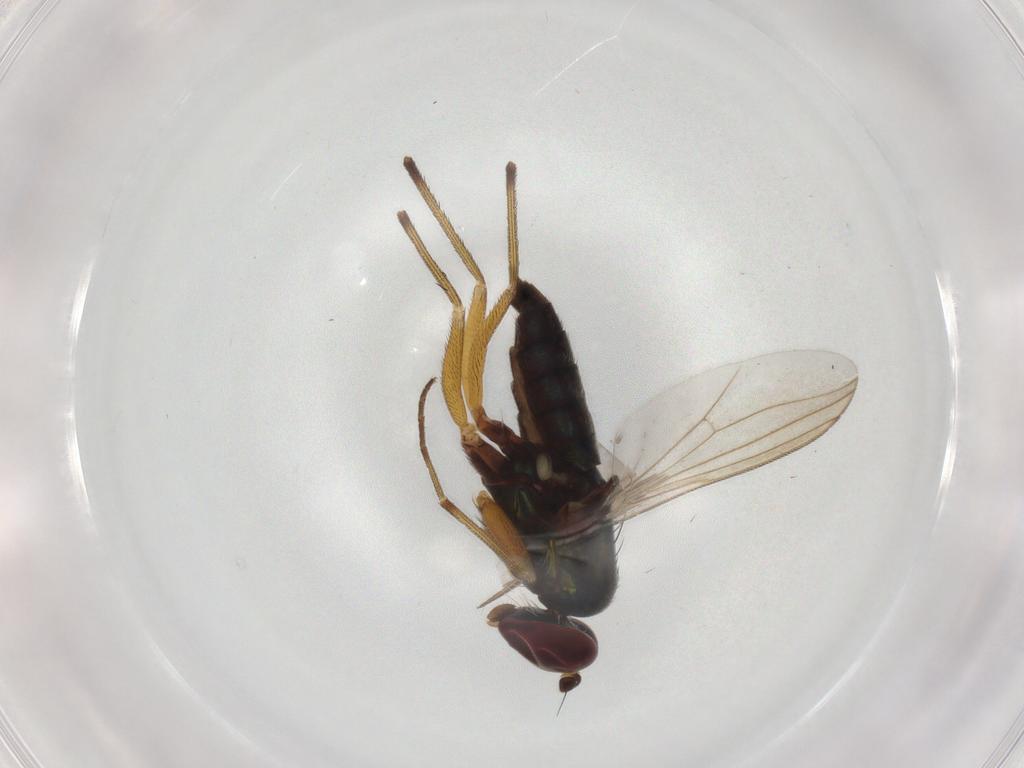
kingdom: Animalia
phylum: Arthropoda
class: Insecta
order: Diptera
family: Dolichopodidae
